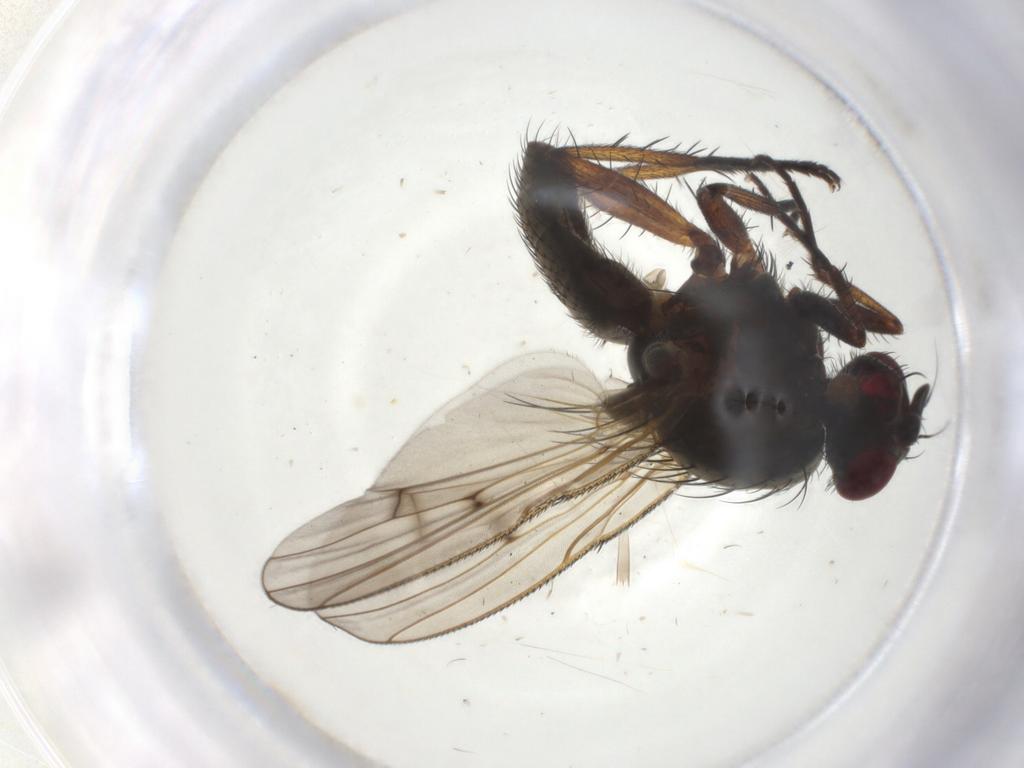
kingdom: Animalia
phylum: Arthropoda
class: Insecta
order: Diptera
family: Anthomyiidae
